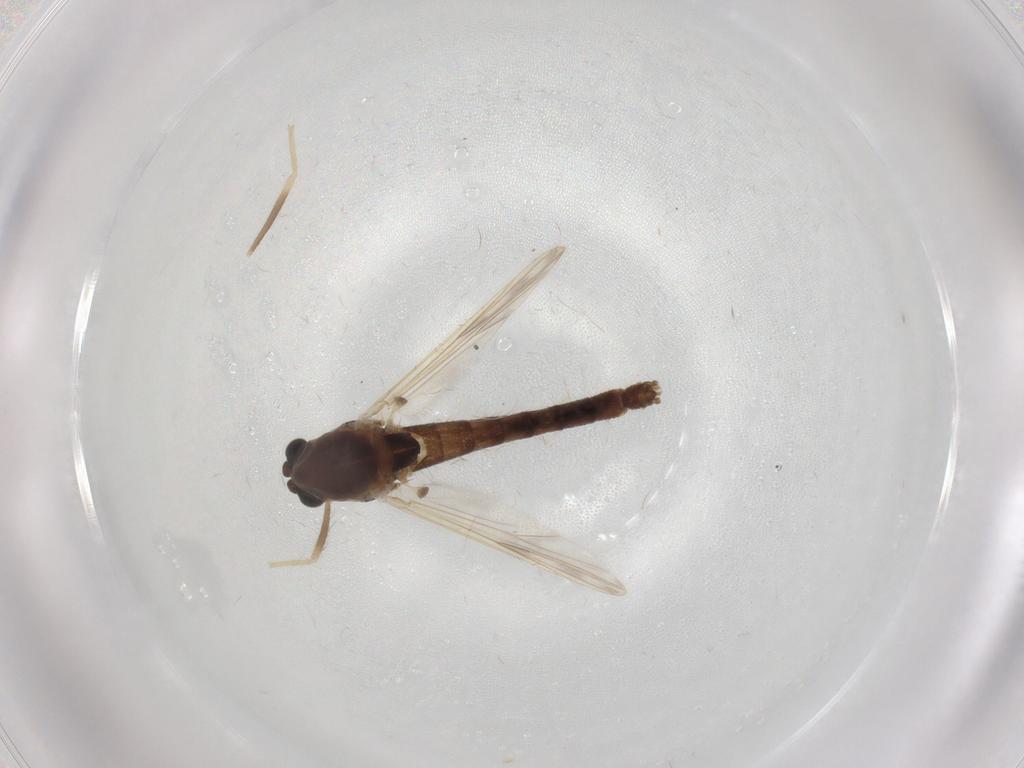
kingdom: Animalia
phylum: Arthropoda
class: Insecta
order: Diptera
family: Chironomidae
